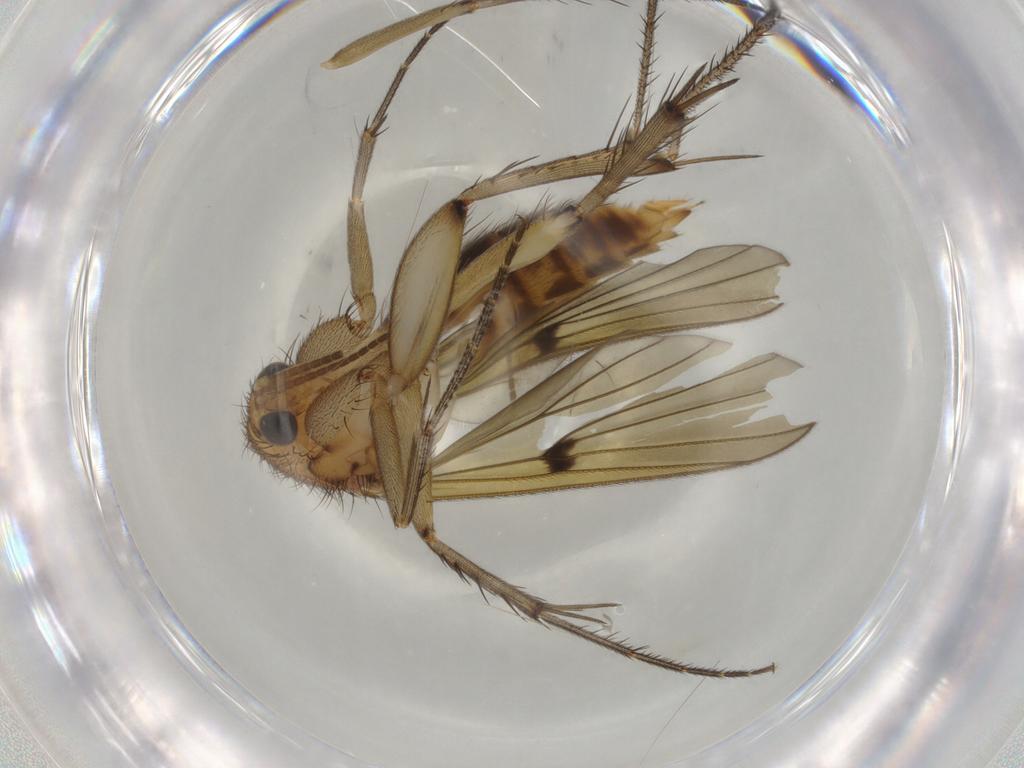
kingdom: Animalia
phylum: Arthropoda
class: Insecta
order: Diptera
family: Mycetophilidae
